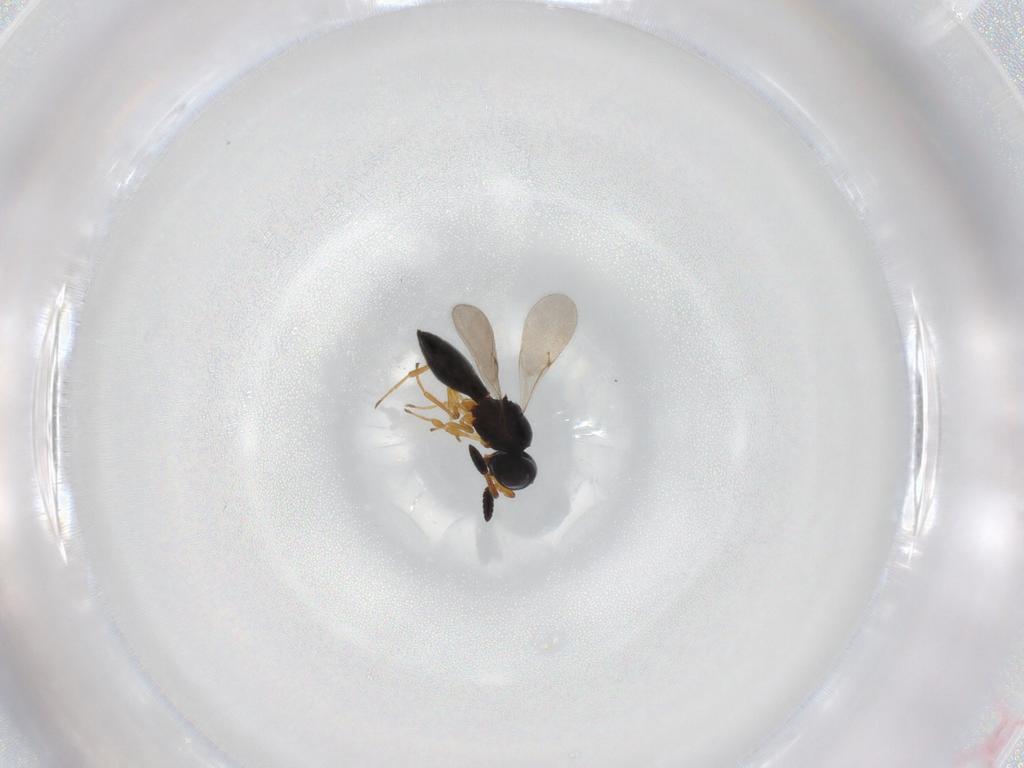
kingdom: Animalia
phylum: Arthropoda
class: Insecta
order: Hymenoptera
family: Scelionidae
